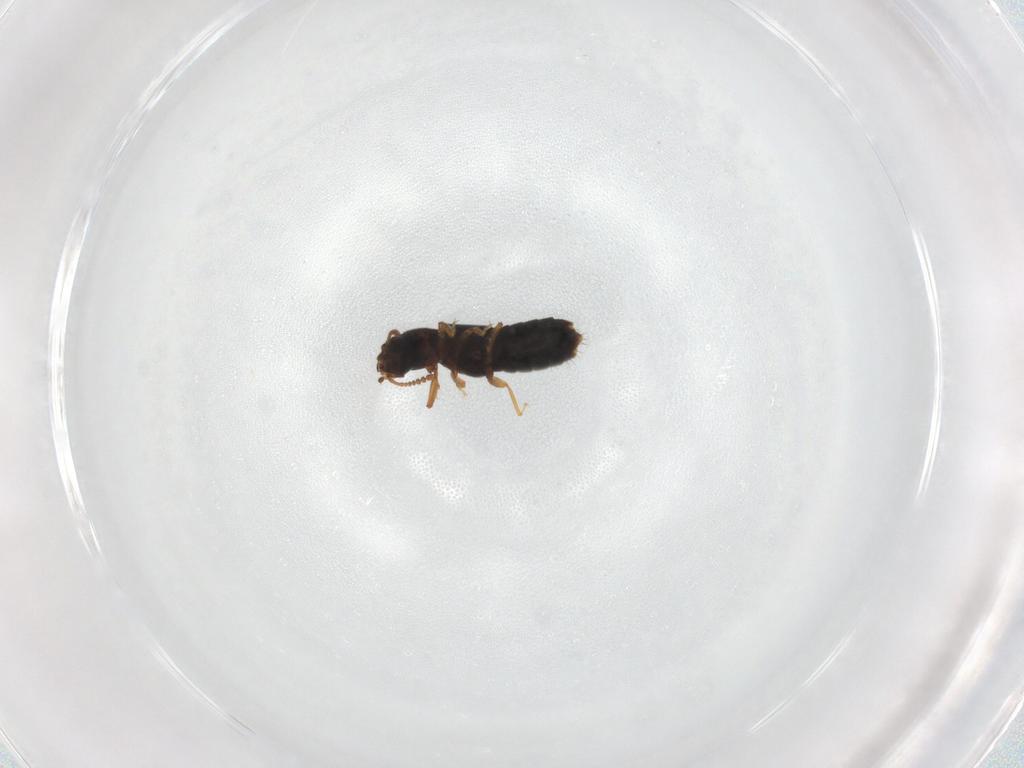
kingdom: Animalia
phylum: Arthropoda
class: Insecta
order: Coleoptera
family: Staphylinidae
